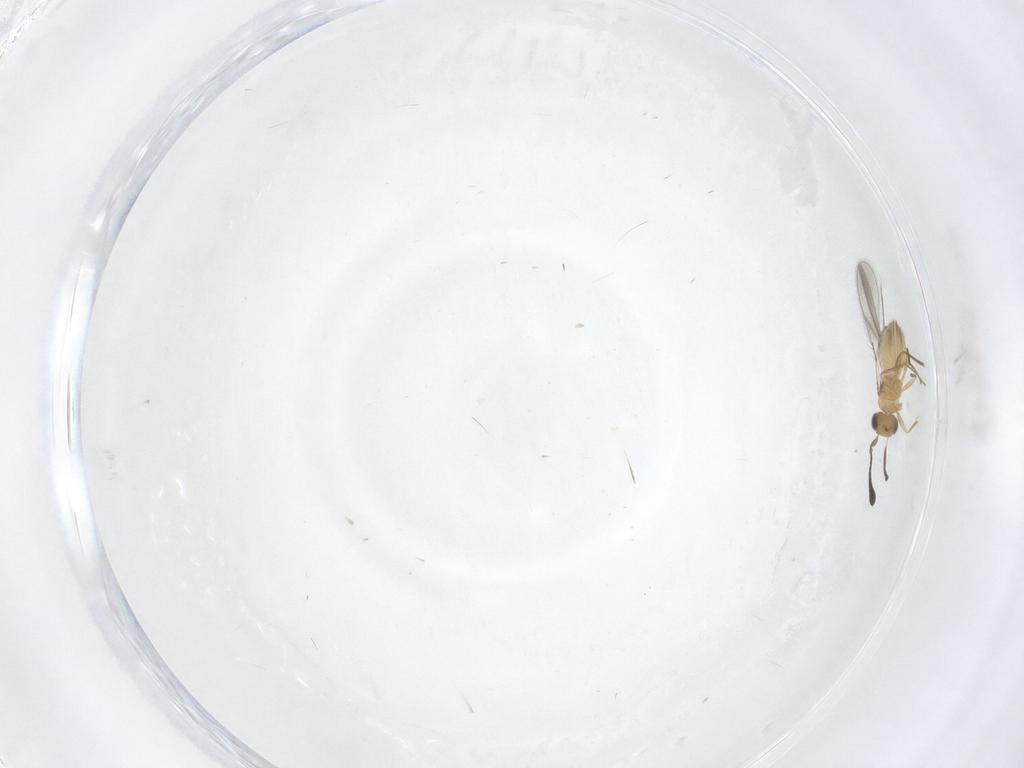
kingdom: Animalia
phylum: Arthropoda
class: Insecta
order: Hymenoptera
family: Mymaridae
